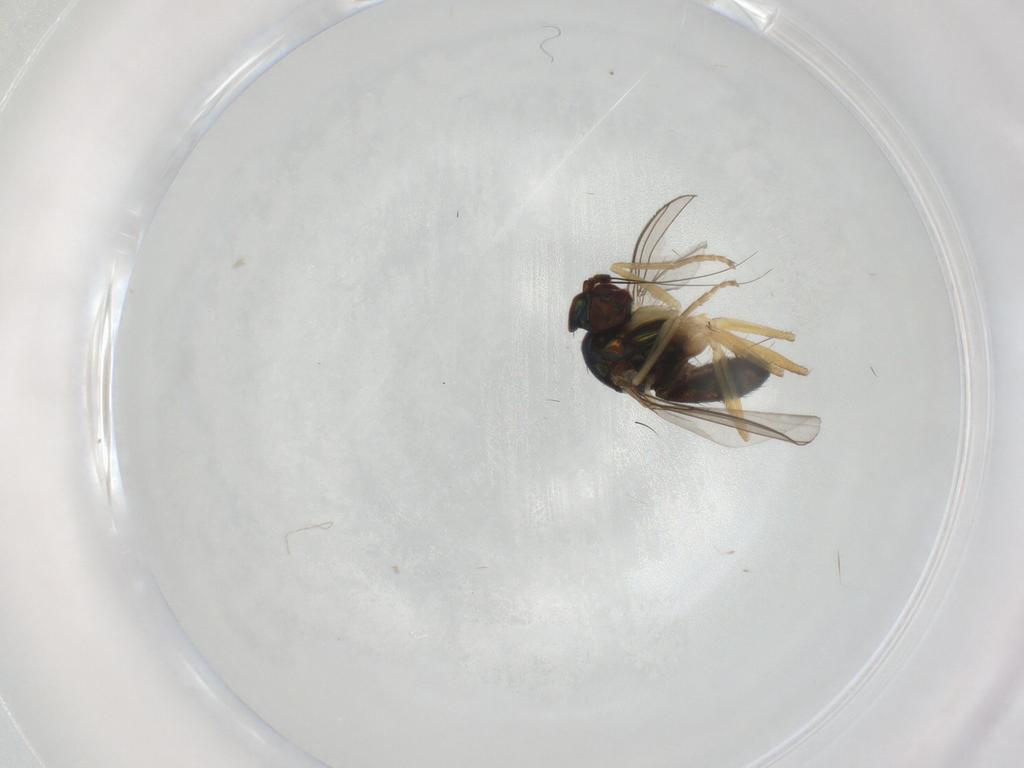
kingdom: Animalia
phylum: Arthropoda
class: Insecta
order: Diptera
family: Dolichopodidae
